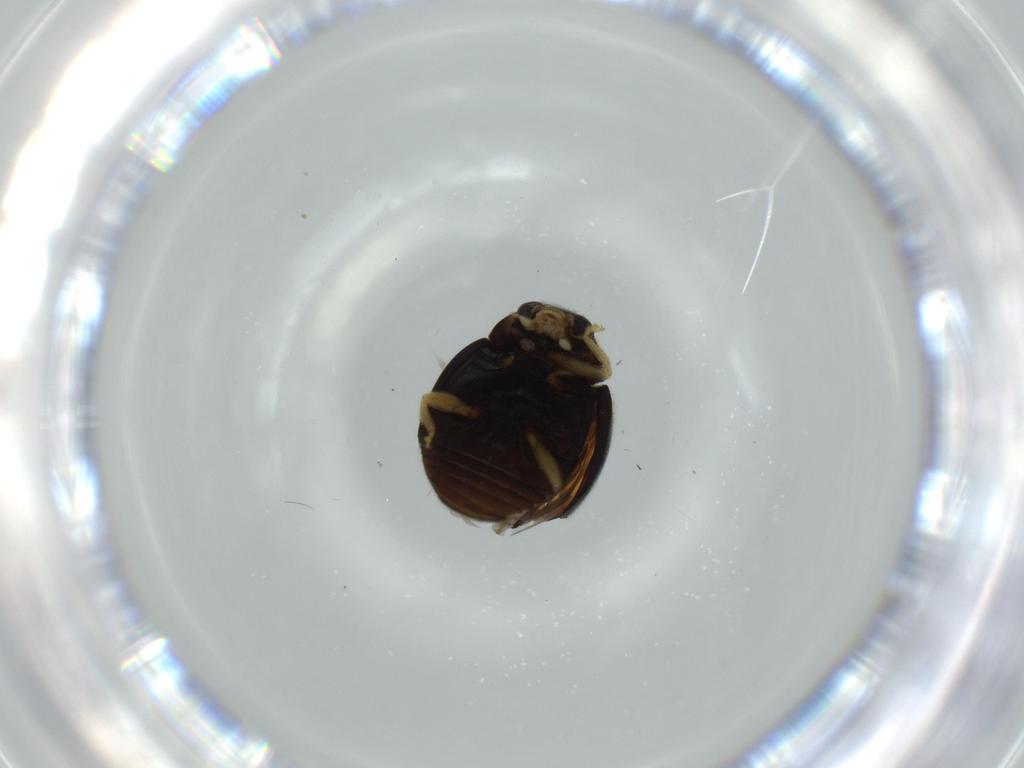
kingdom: Animalia
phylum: Arthropoda
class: Insecta
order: Coleoptera
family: Coccinellidae
